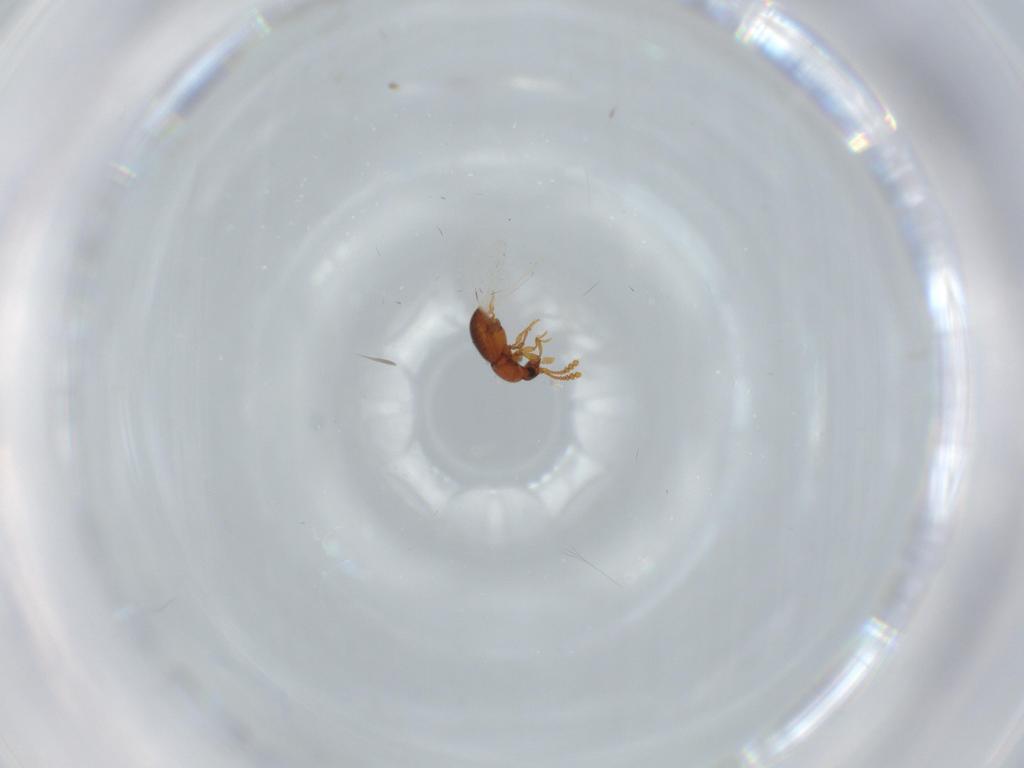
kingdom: Animalia
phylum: Arthropoda
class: Insecta
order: Coleoptera
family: Staphylinidae
